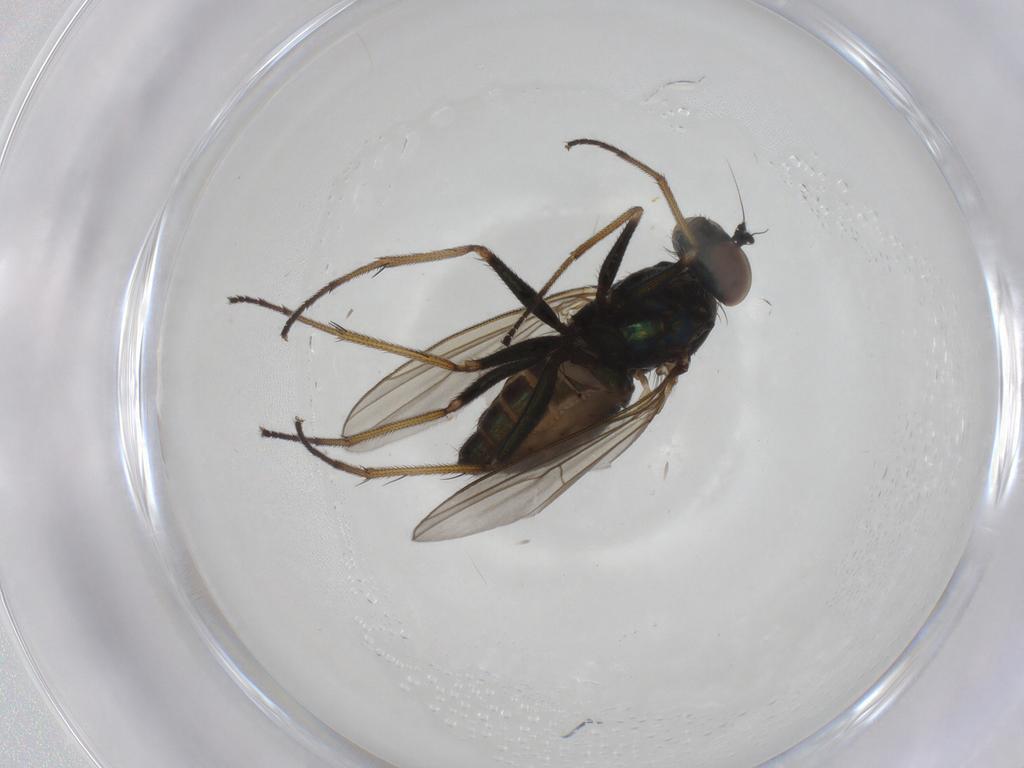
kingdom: Animalia
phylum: Arthropoda
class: Insecta
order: Diptera
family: Dolichopodidae
